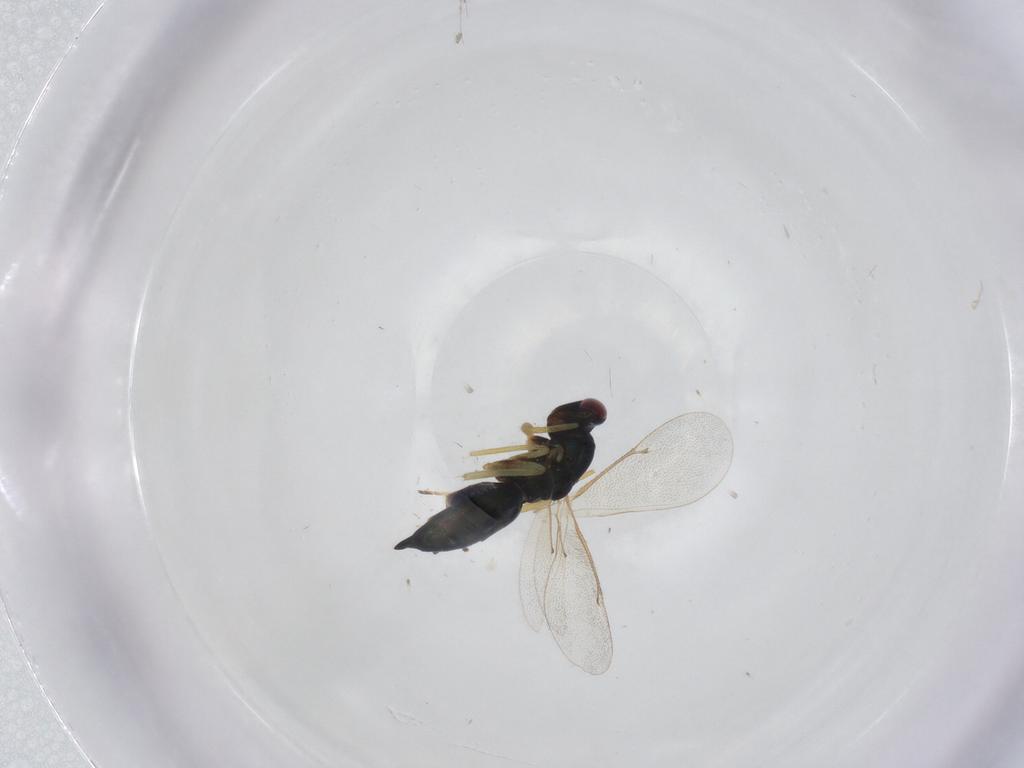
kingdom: Animalia
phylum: Arthropoda
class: Insecta
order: Hymenoptera
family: Eulophidae
